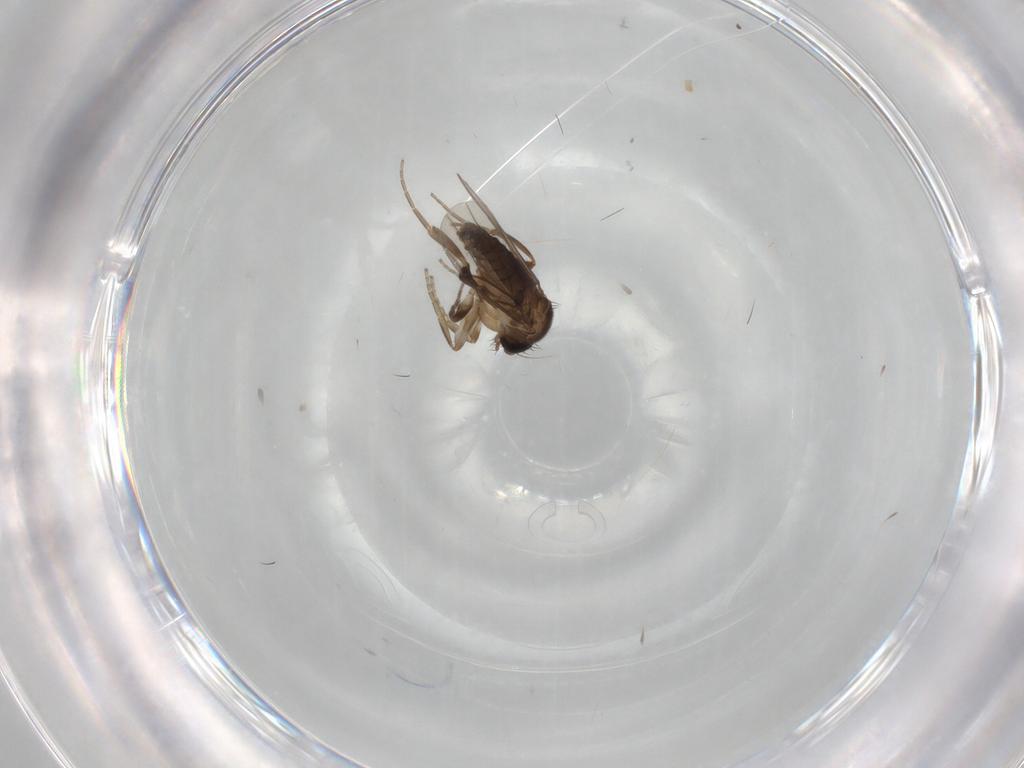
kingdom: Animalia
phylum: Arthropoda
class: Insecta
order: Diptera
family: Phoridae
